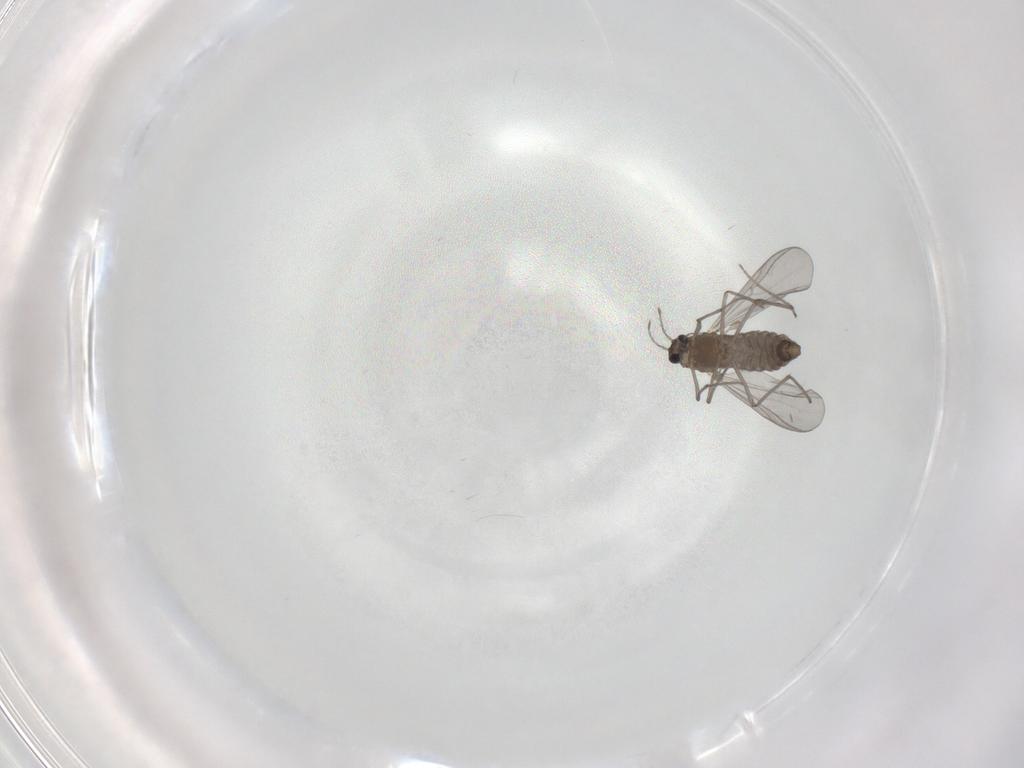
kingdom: Animalia
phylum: Arthropoda
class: Insecta
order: Diptera
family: Chironomidae
